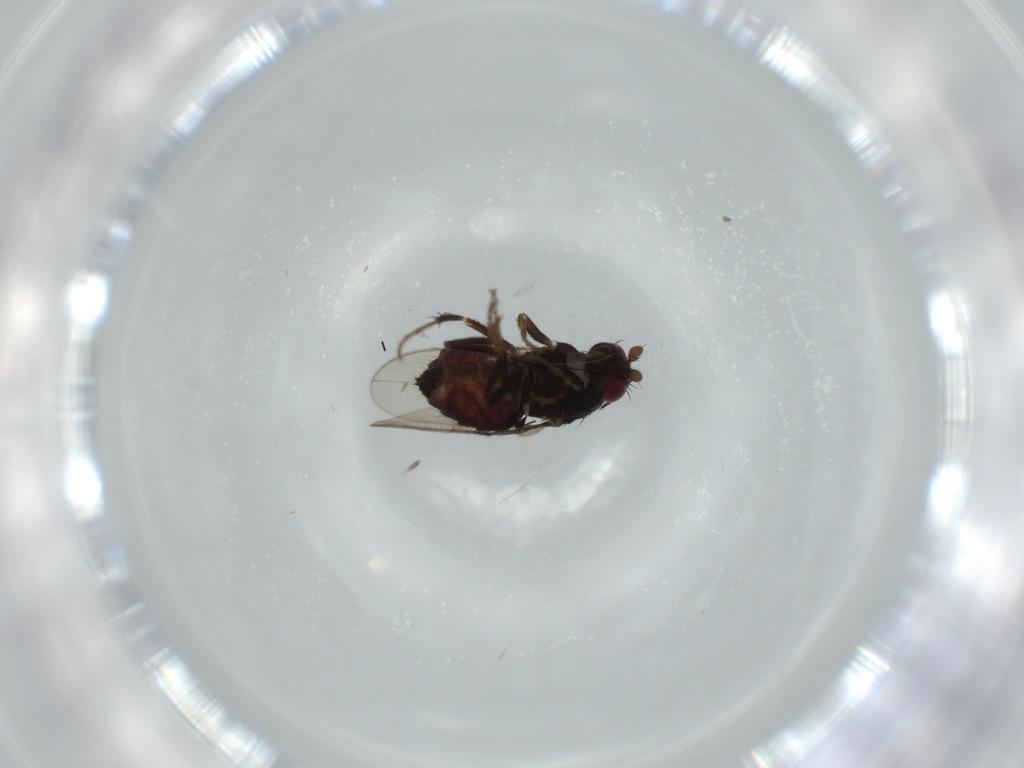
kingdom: Animalia
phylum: Arthropoda
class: Insecta
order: Diptera
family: Sphaeroceridae
